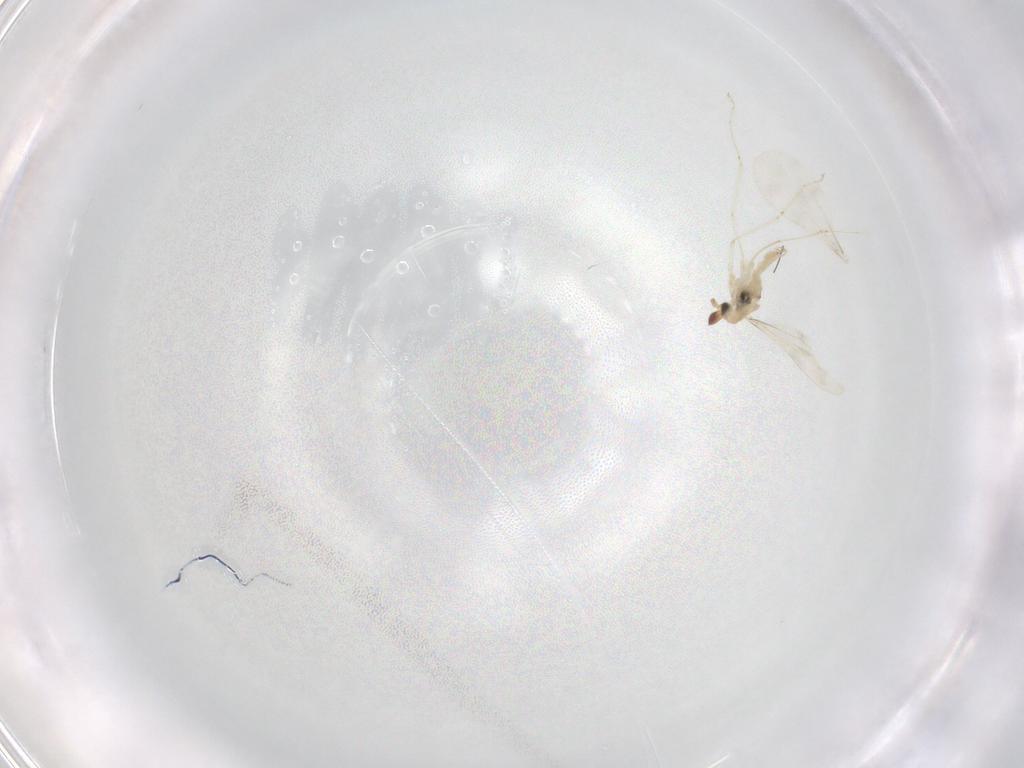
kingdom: Animalia
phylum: Arthropoda
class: Insecta
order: Diptera
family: Cecidomyiidae
